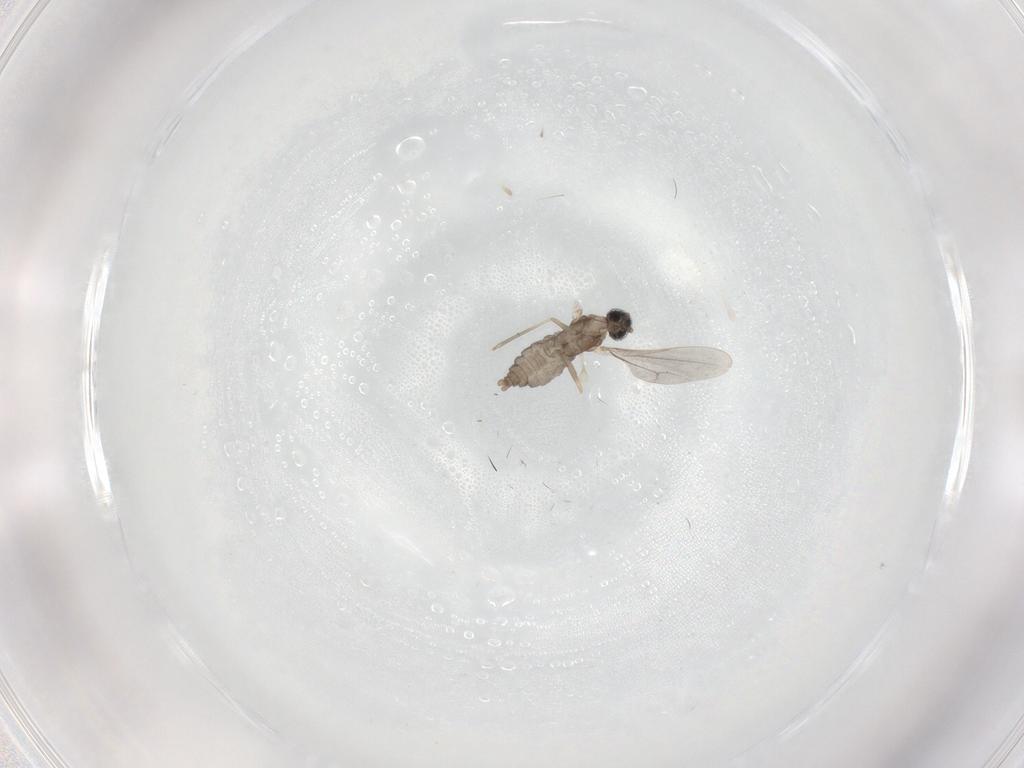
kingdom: Animalia
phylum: Arthropoda
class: Insecta
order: Diptera
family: Cecidomyiidae
